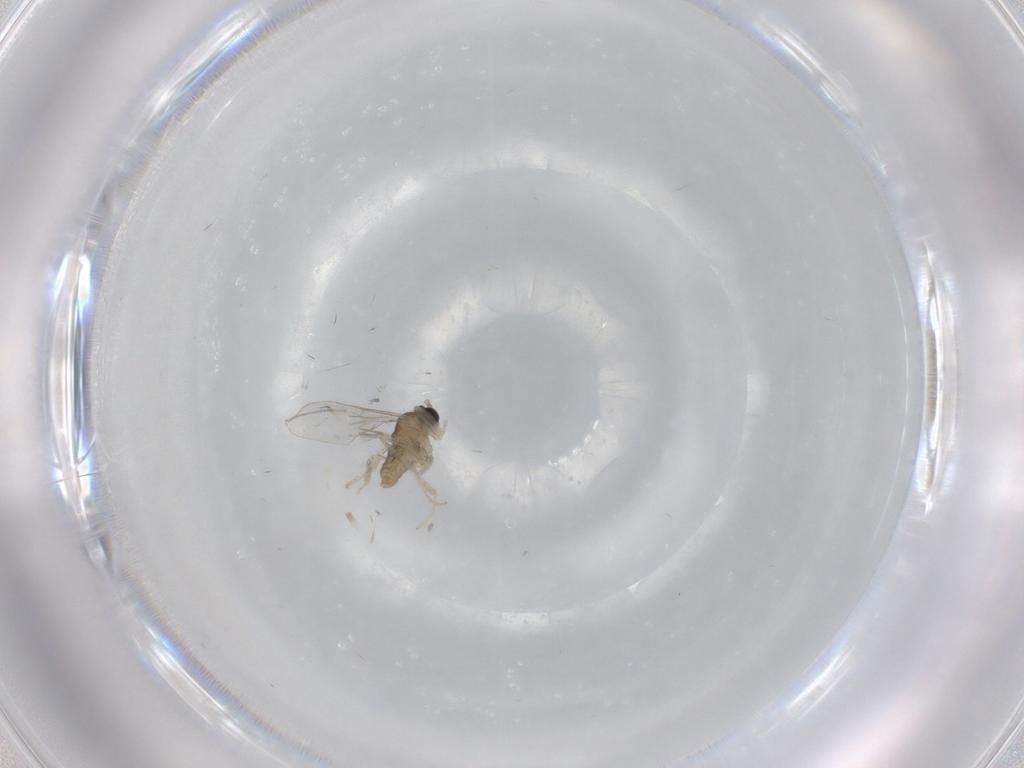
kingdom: Animalia
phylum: Arthropoda
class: Insecta
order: Diptera
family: Cecidomyiidae
